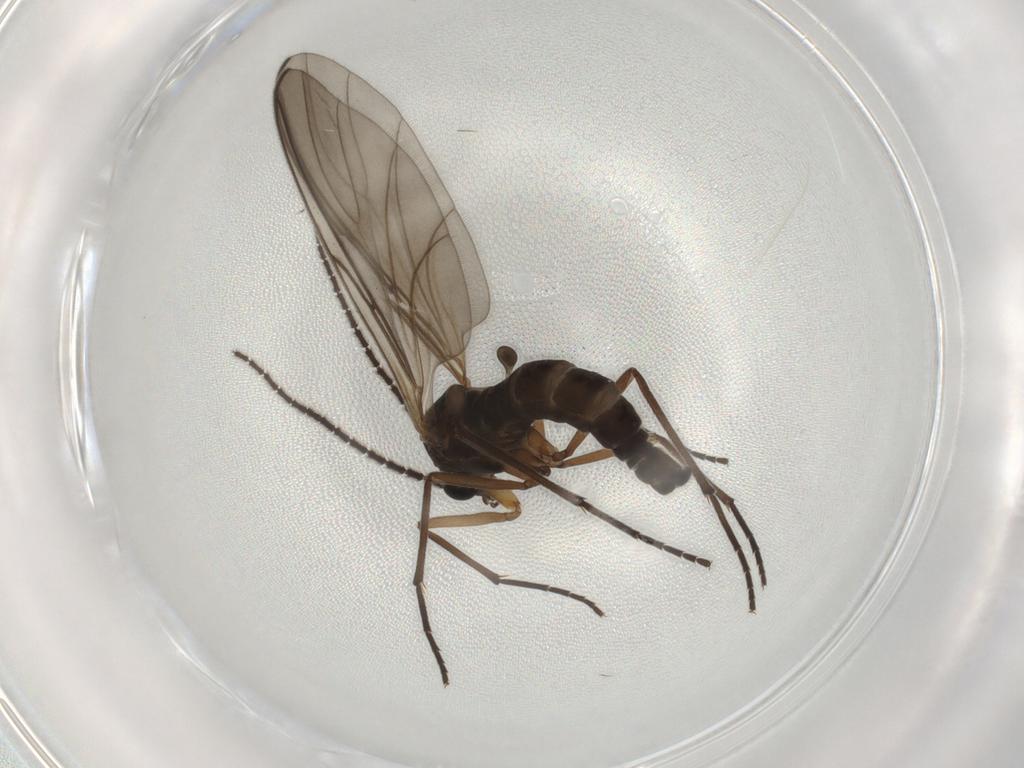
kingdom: Animalia
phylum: Arthropoda
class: Insecta
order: Diptera
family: Sciaridae
